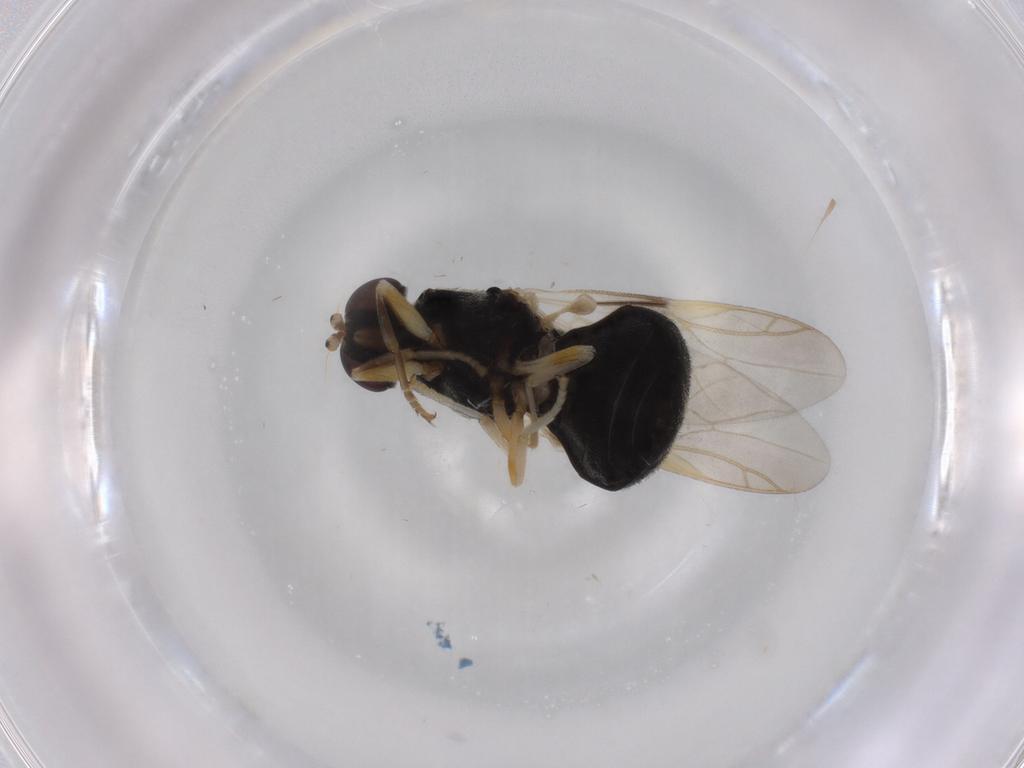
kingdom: Animalia
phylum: Arthropoda
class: Insecta
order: Diptera
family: Stratiomyidae
